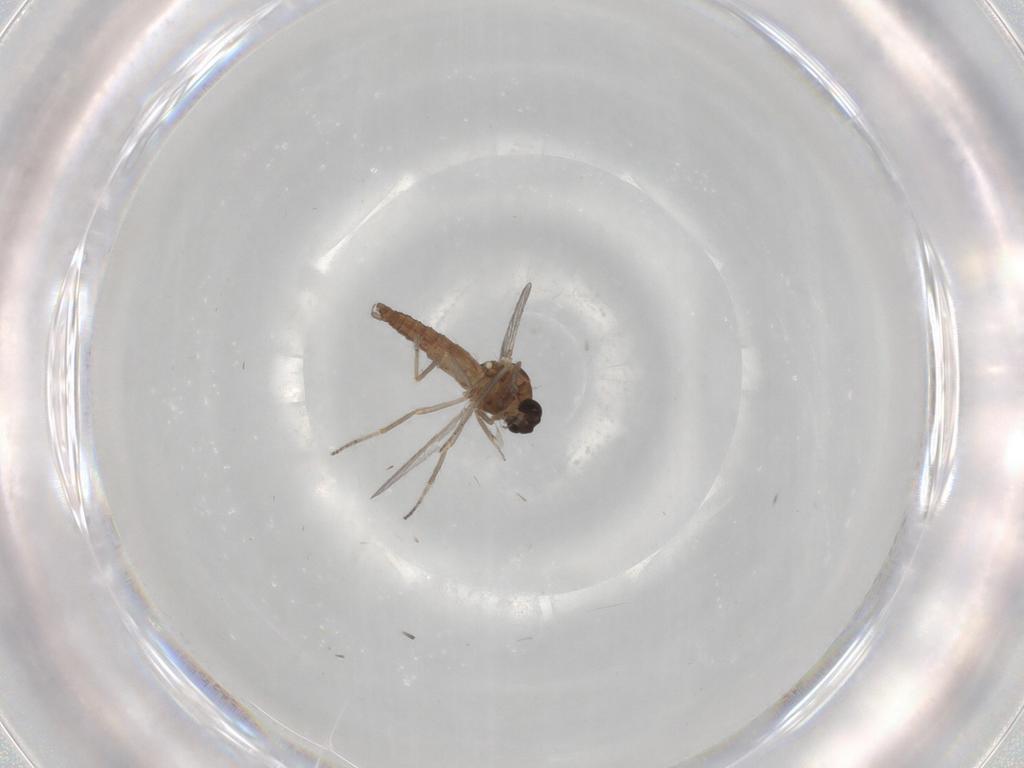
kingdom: Animalia
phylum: Arthropoda
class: Insecta
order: Diptera
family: Ceratopogonidae
